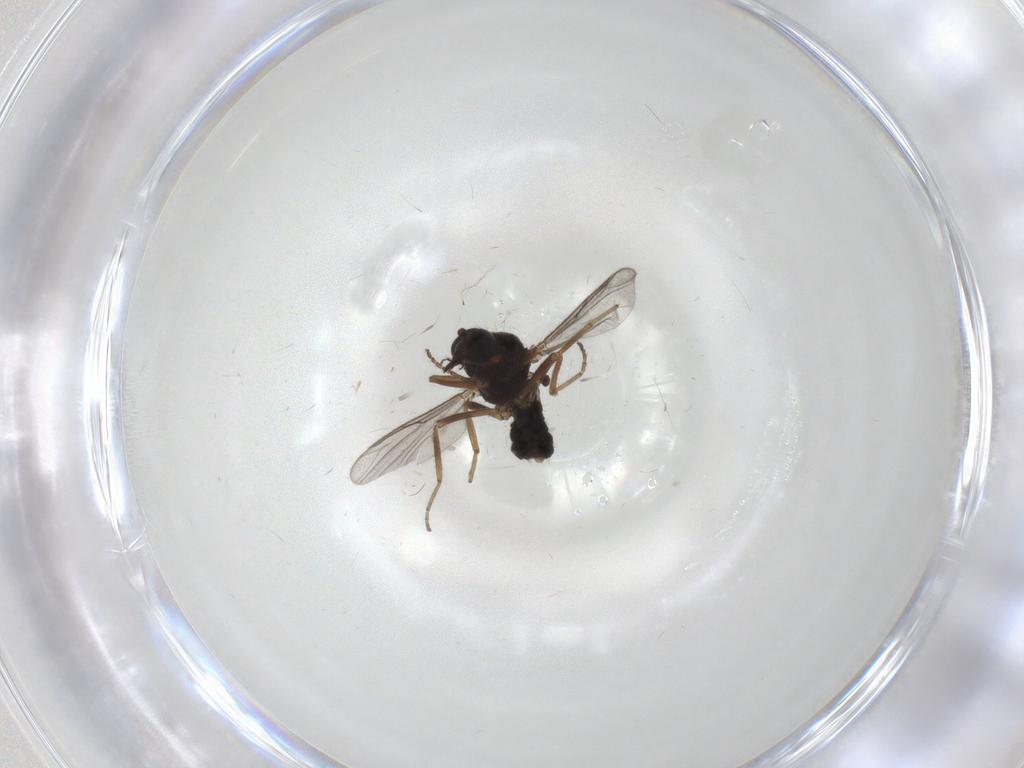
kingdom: Animalia
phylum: Arthropoda
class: Insecta
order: Diptera
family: Ceratopogonidae
